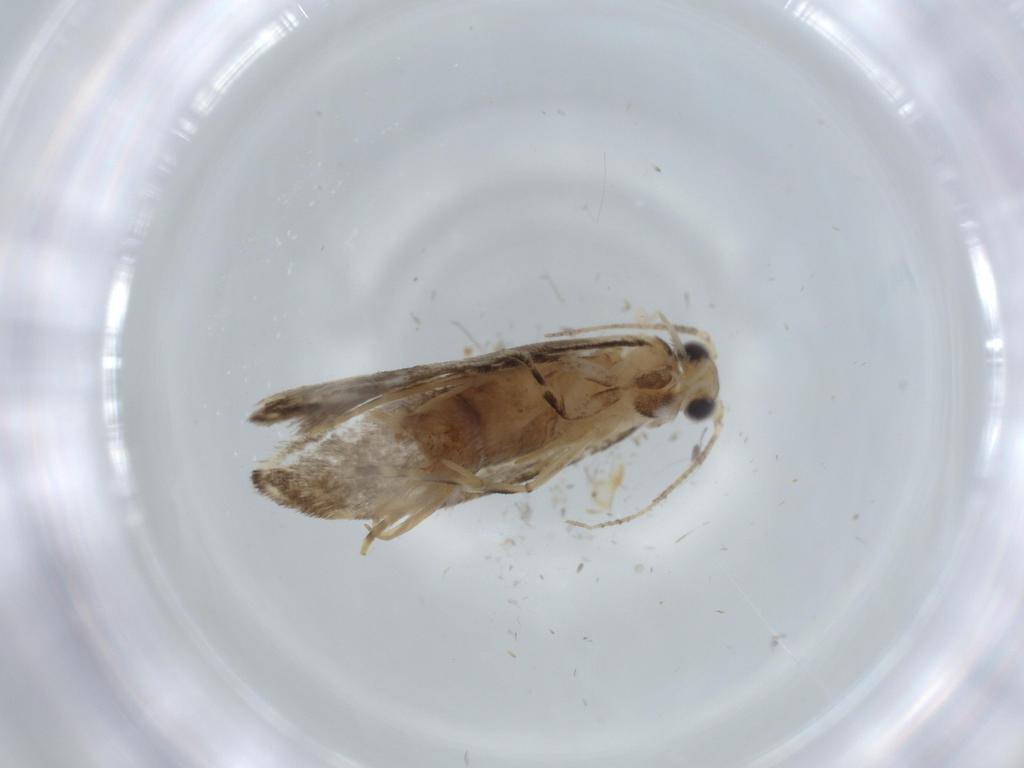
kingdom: Animalia
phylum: Arthropoda
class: Insecta
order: Lepidoptera
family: Tineidae
